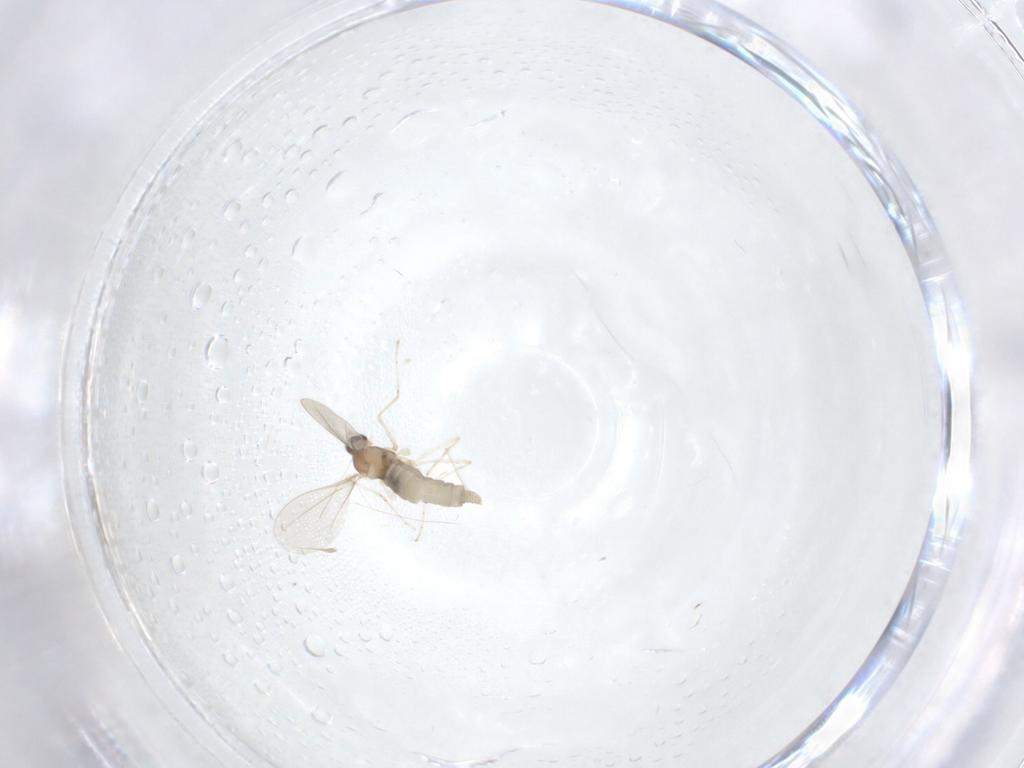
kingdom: Animalia
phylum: Arthropoda
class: Insecta
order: Diptera
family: Cecidomyiidae
